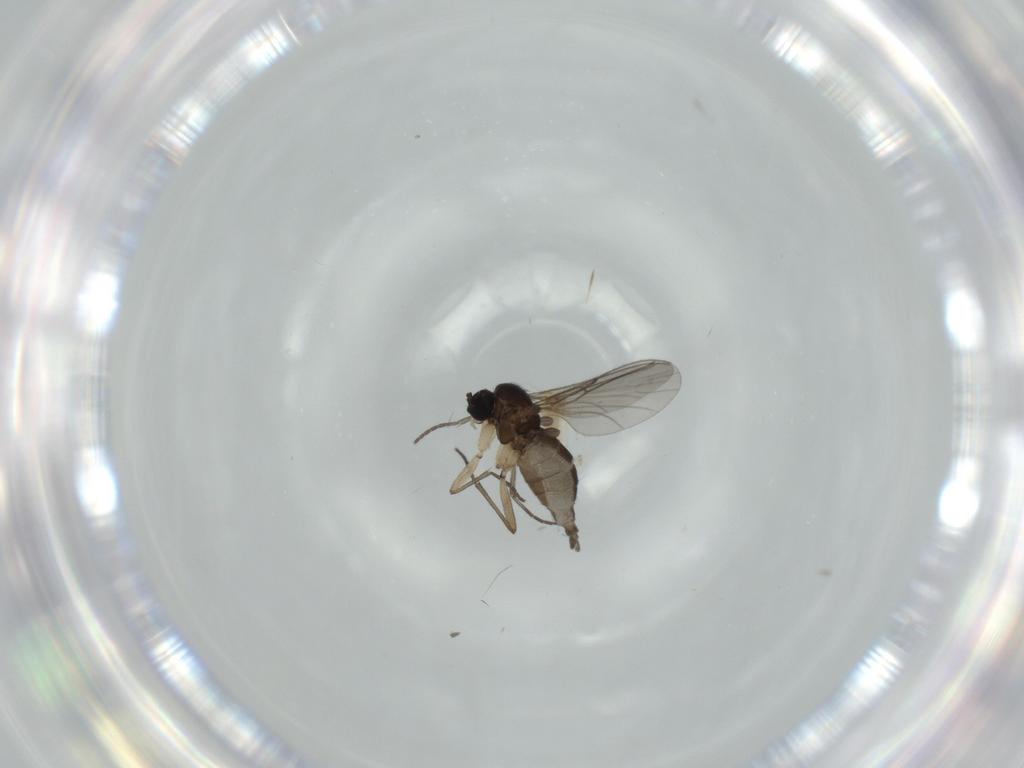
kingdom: Animalia
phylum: Arthropoda
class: Insecta
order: Diptera
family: Sciaridae
